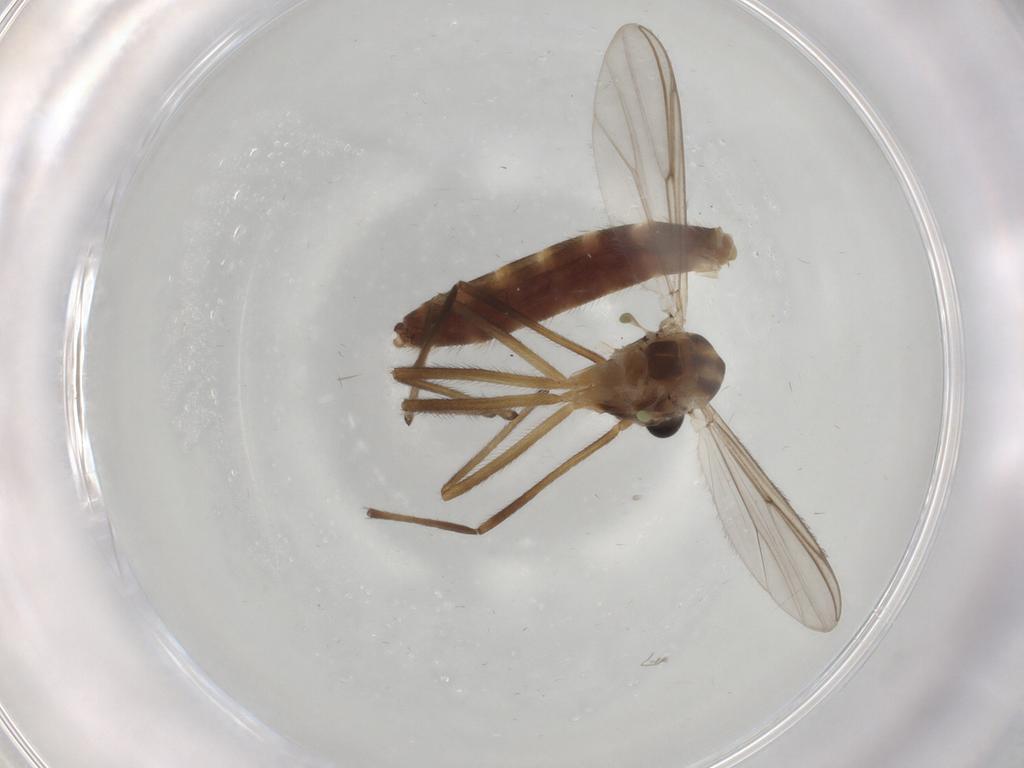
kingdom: Animalia
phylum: Arthropoda
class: Insecta
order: Diptera
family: Chironomidae
